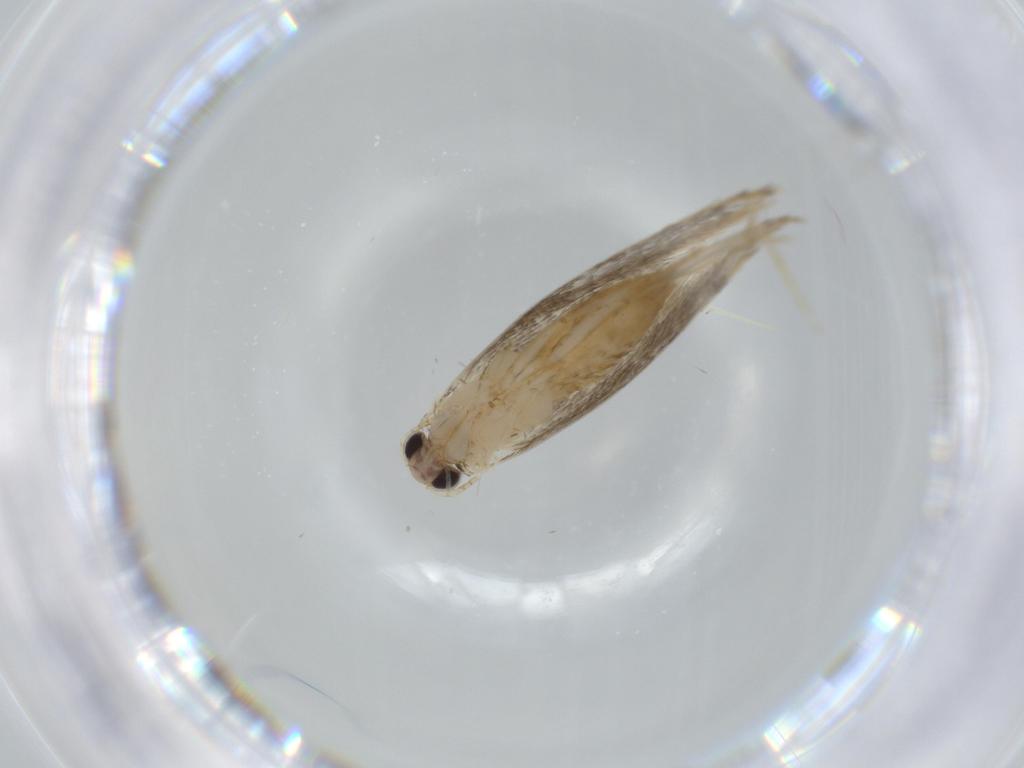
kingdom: Animalia
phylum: Arthropoda
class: Insecta
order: Lepidoptera
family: Tineidae
